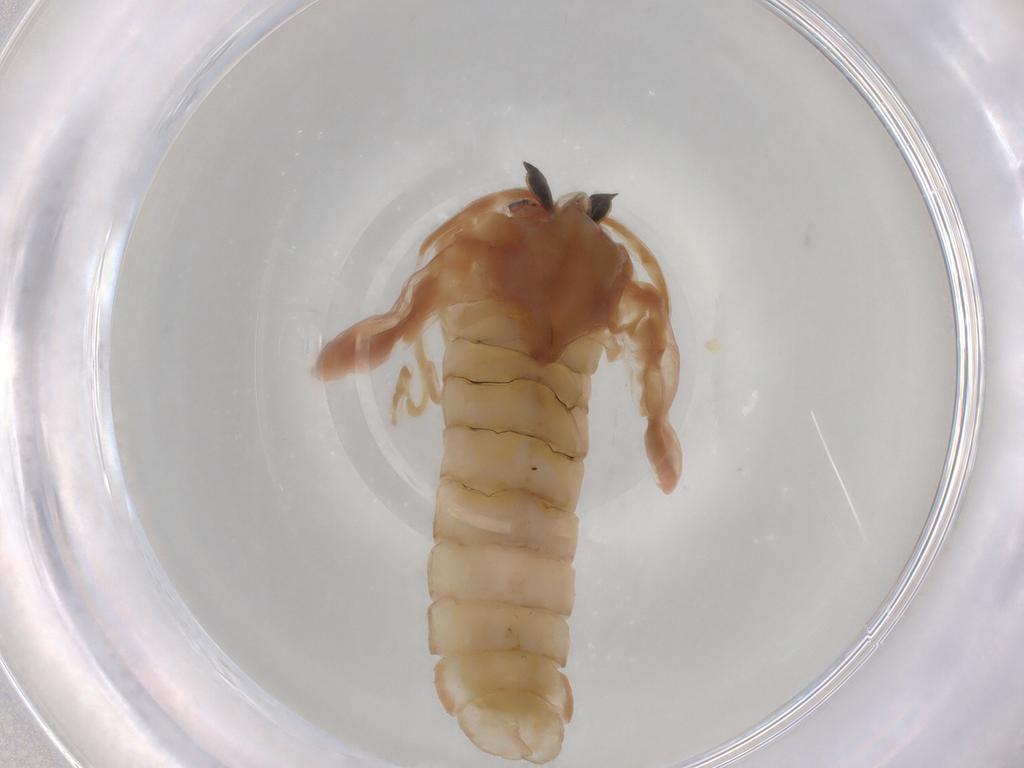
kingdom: Animalia
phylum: Arthropoda
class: Insecta
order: Diptera
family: Chironomidae
